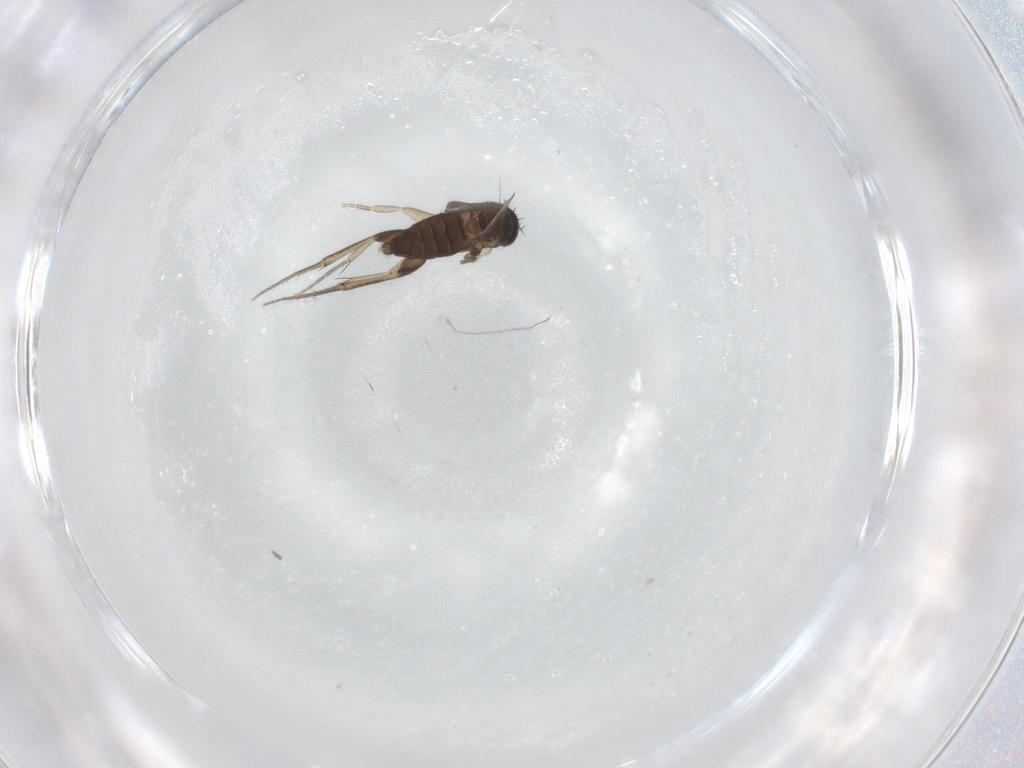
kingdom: Animalia
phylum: Arthropoda
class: Insecta
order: Diptera
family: Phoridae
